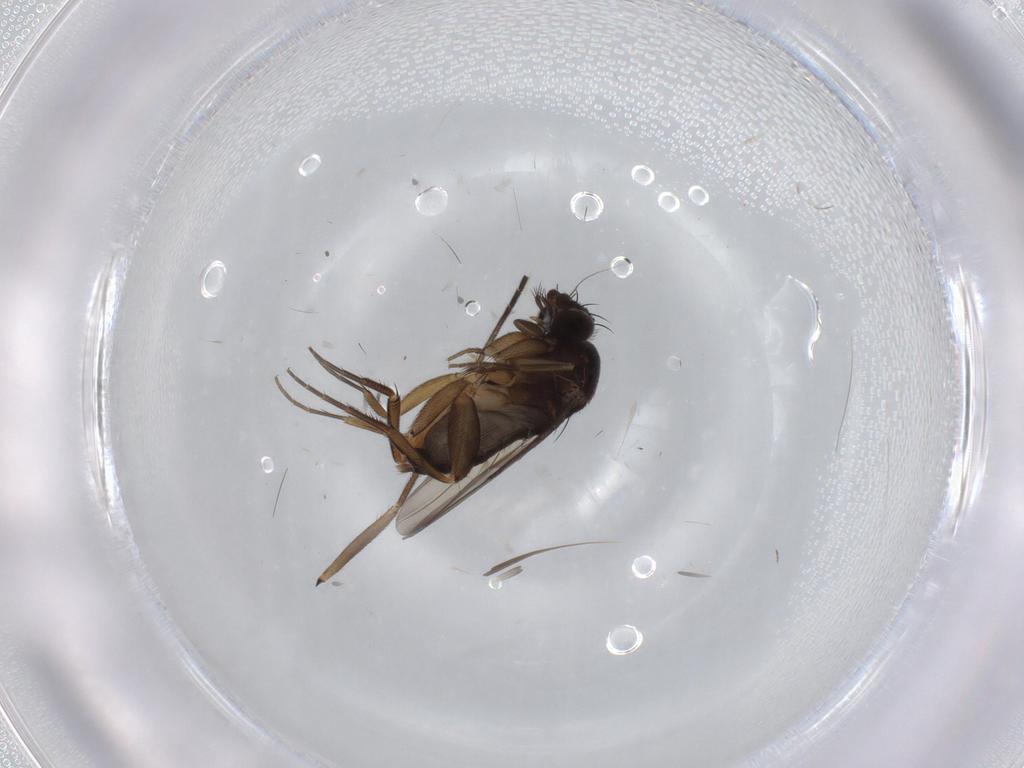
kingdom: Animalia
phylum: Arthropoda
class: Insecta
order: Diptera
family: Phoridae
